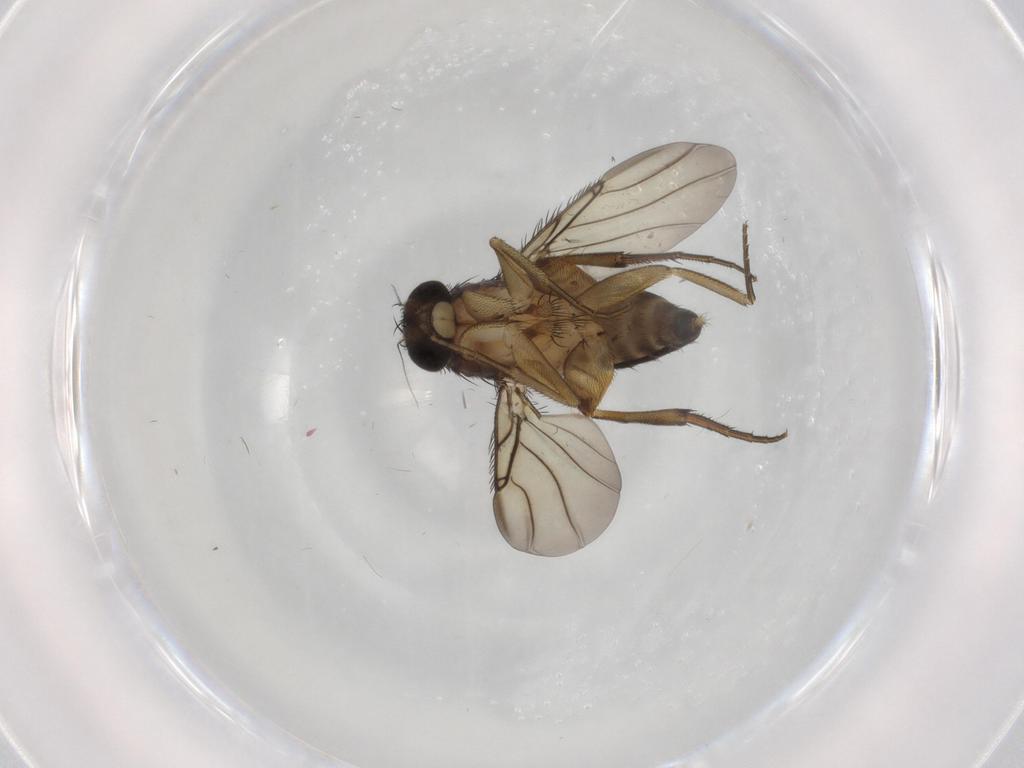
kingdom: Animalia
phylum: Arthropoda
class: Insecta
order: Diptera
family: Phoridae
